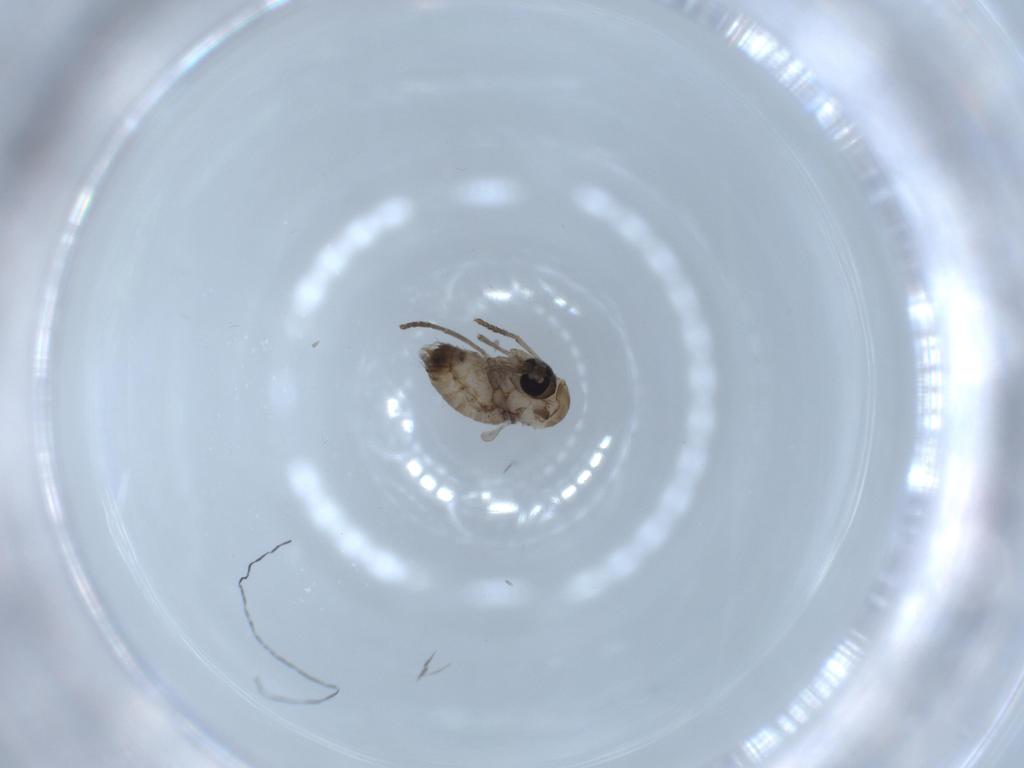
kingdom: Animalia
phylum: Arthropoda
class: Insecta
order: Diptera
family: Psychodidae
